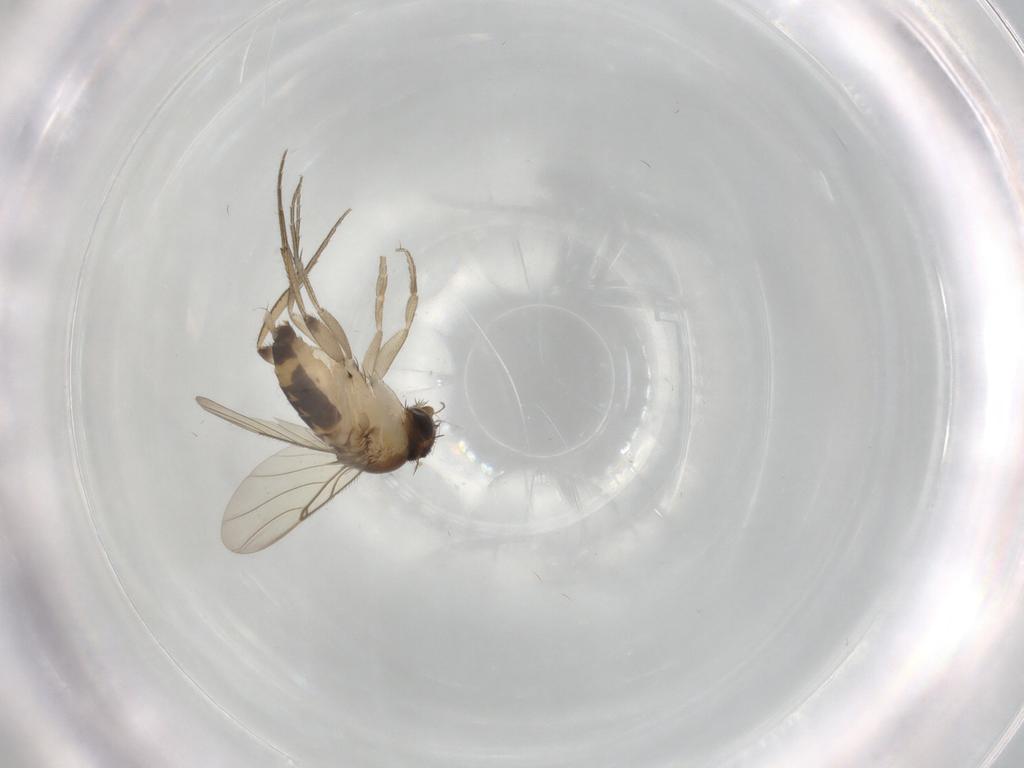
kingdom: Animalia
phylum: Arthropoda
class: Insecta
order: Diptera
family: Phoridae
